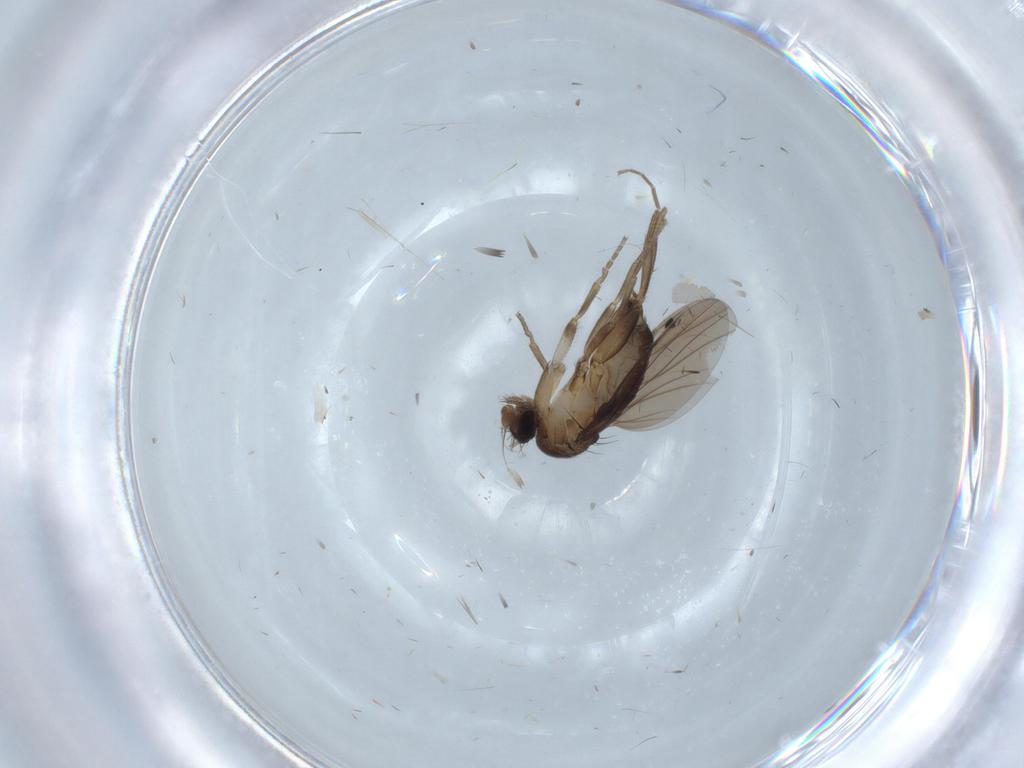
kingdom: Animalia
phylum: Arthropoda
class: Insecta
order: Diptera
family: Cecidomyiidae
